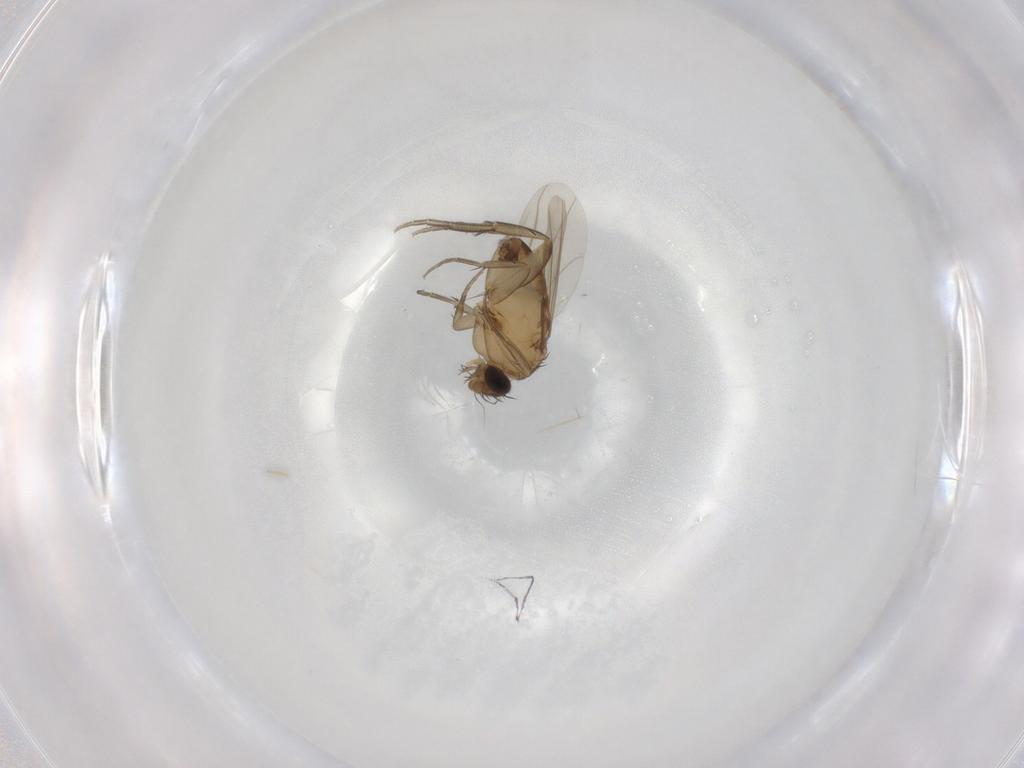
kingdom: Animalia
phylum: Arthropoda
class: Insecta
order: Diptera
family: Phoridae
